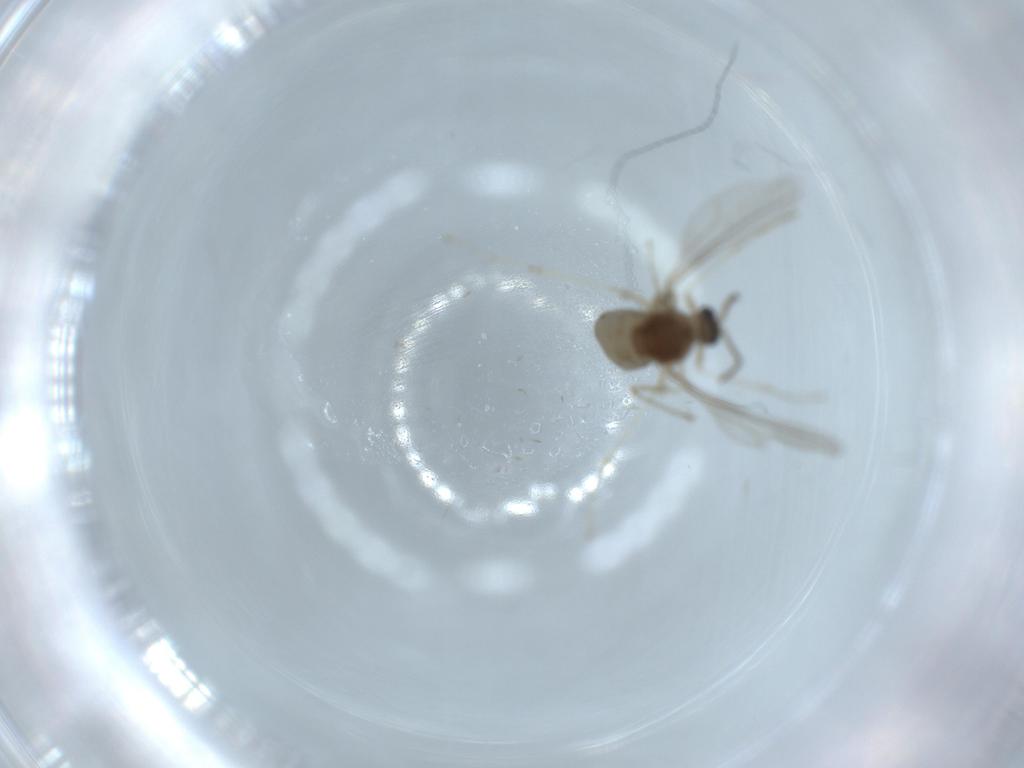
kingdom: Animalia
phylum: Arthropoda
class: Insecta
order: Diptera
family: Cecidomyiidae
